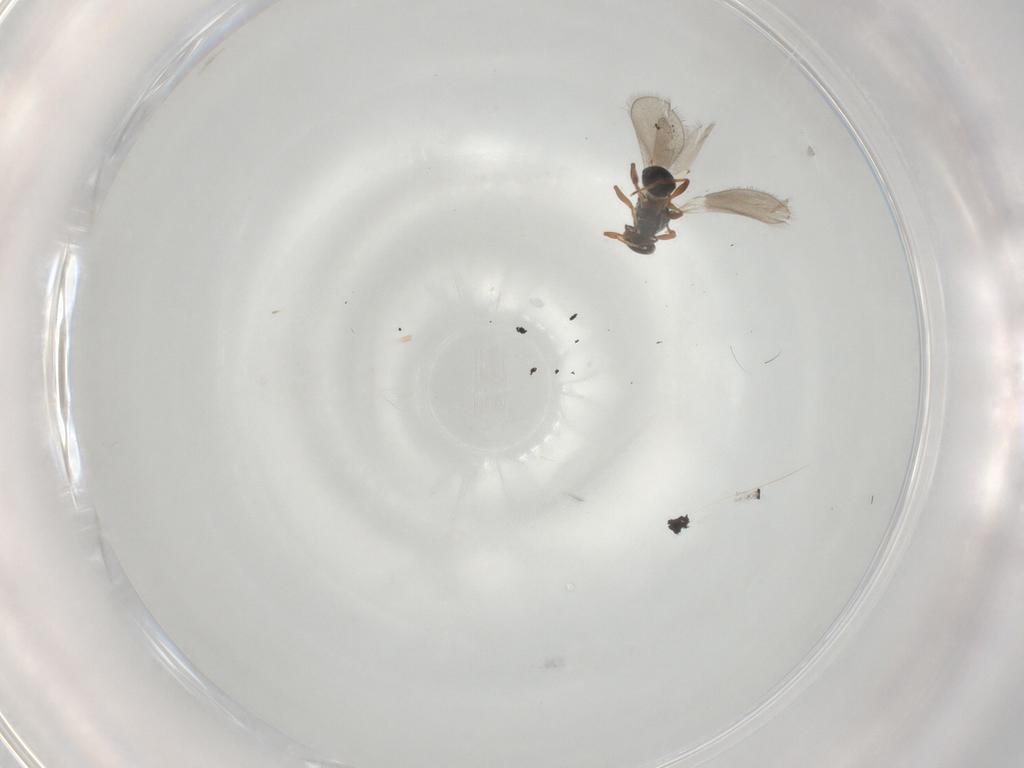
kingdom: Animalia
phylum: Arthropoda
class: Insecta
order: Hymenoptera
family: Platygastridae
